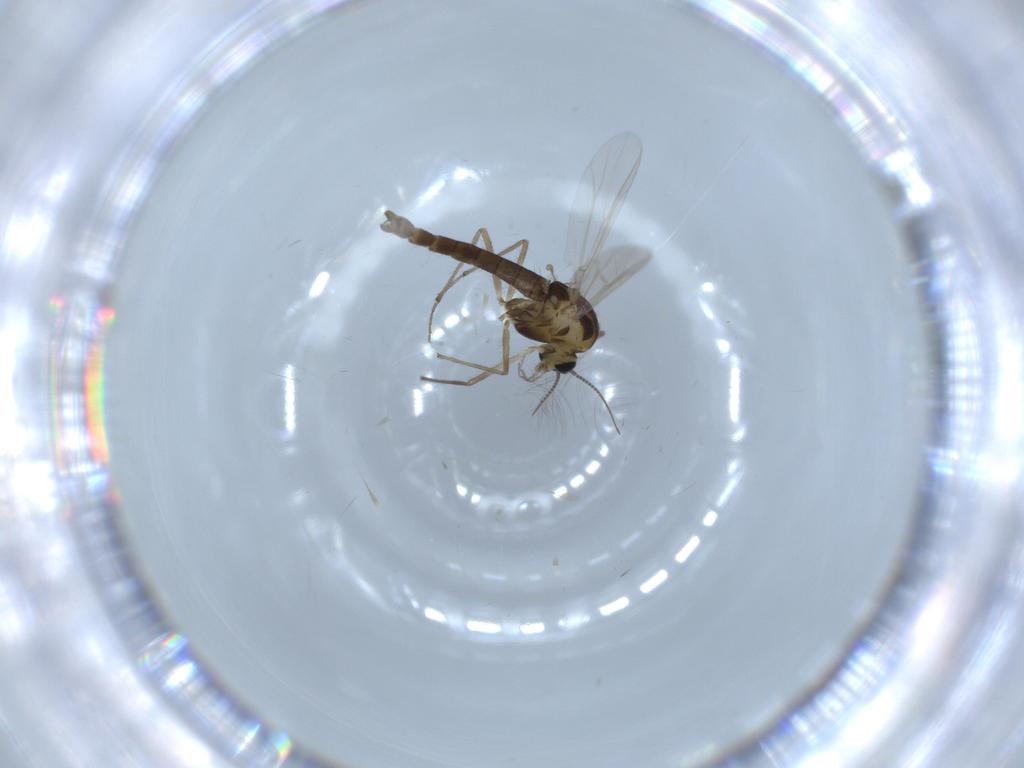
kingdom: Animalia
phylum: Arthropoda
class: Insecta
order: Diptera
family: Sciaridae
